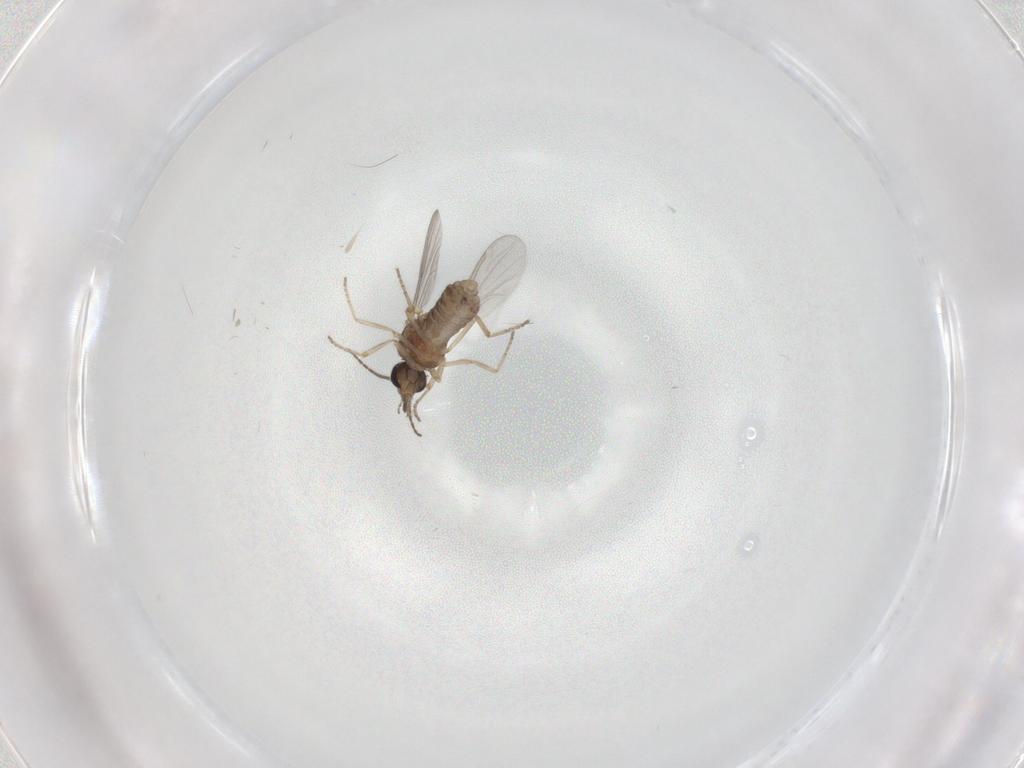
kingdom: Animalia
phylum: Arthropoda
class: Insecta
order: Diptera
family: Ceratopogonidae
